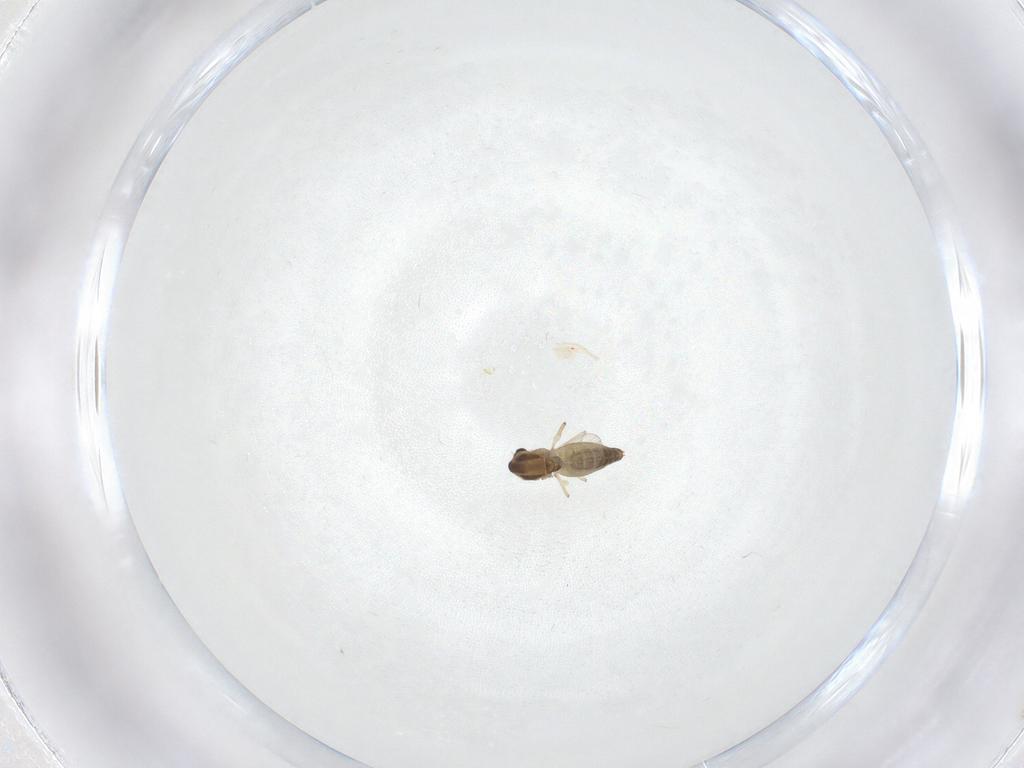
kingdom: Animalia
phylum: Arthropoda
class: Insecta
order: Diptera
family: Chironomidae
